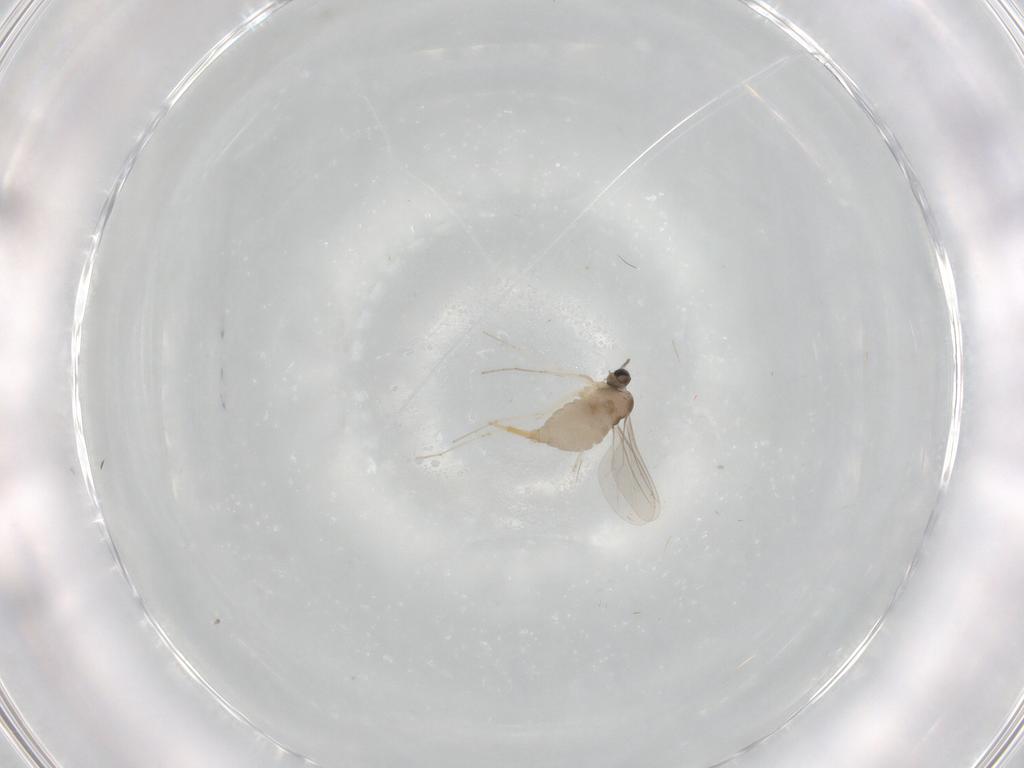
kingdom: Animalia
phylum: Arthropoda
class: Insecta
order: Diptera
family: Cecidomyiidae
